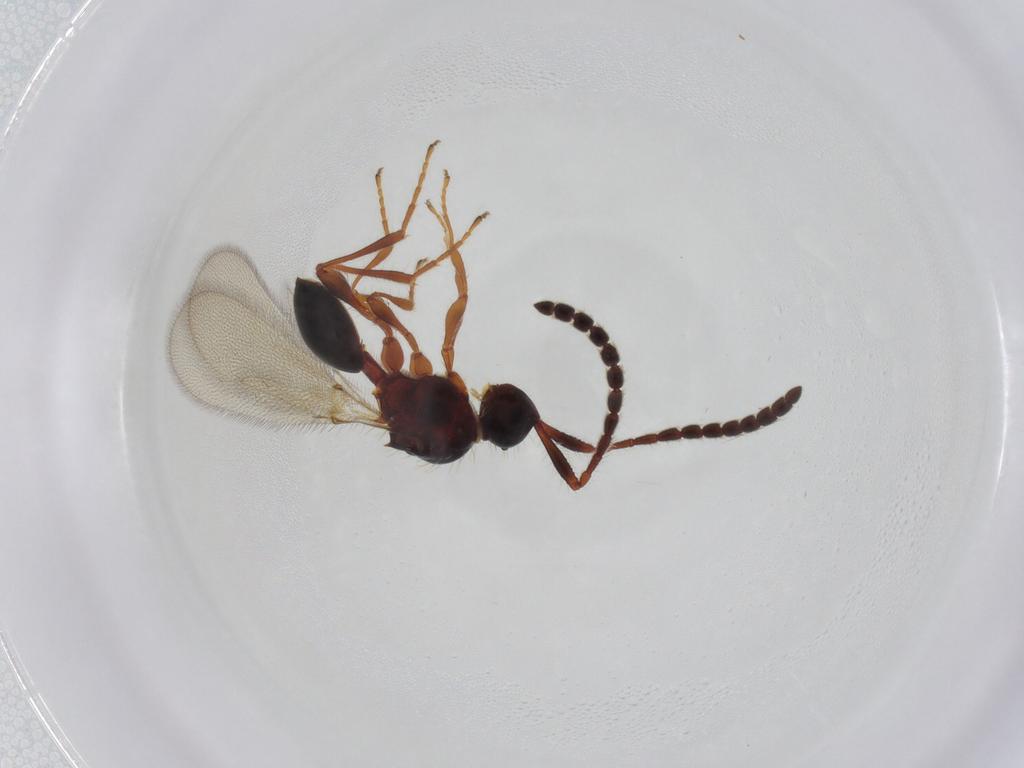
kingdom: Animalia
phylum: Arthropoda
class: Insecta
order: Hymenoptera
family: Diapriidae
